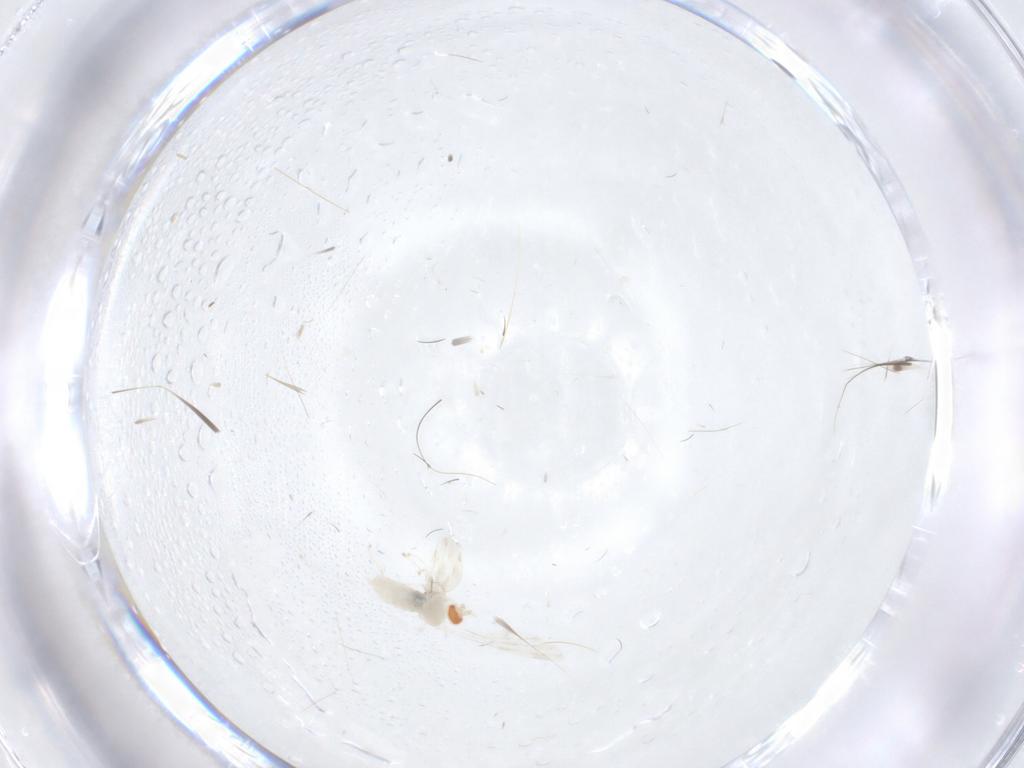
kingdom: Animalia
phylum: Arthropoda
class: Insecta
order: Diptera
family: Cecidomyiidae
